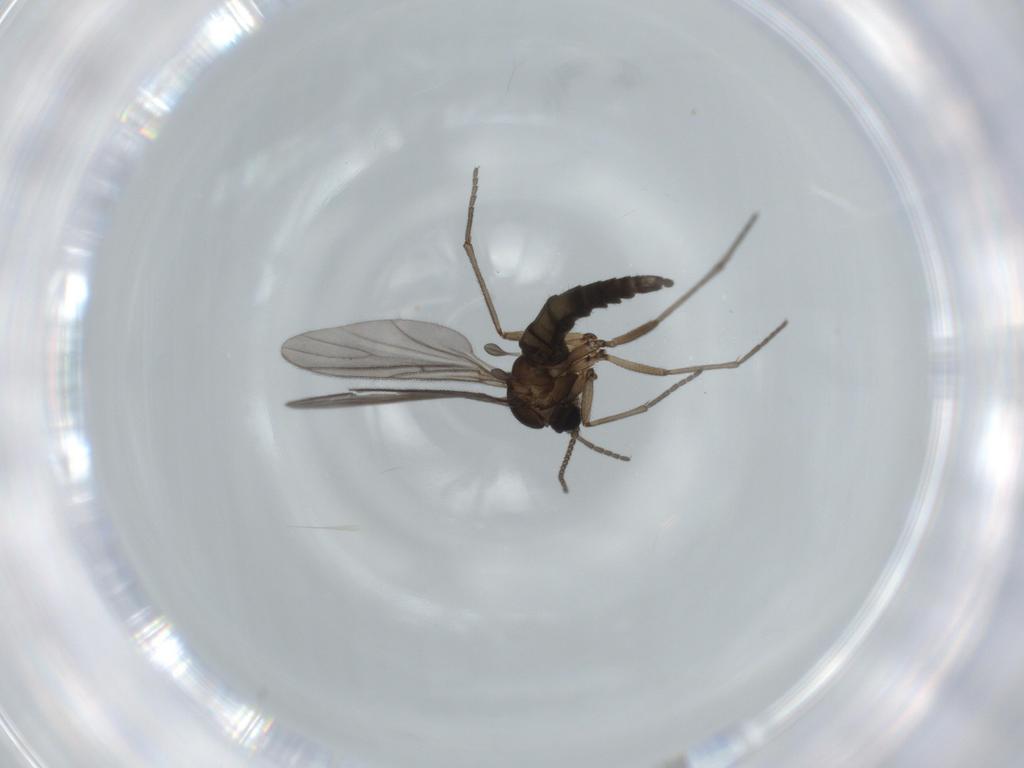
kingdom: Animalia
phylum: Arthropoda
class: Insecta
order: Diptera
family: Sciaridae
